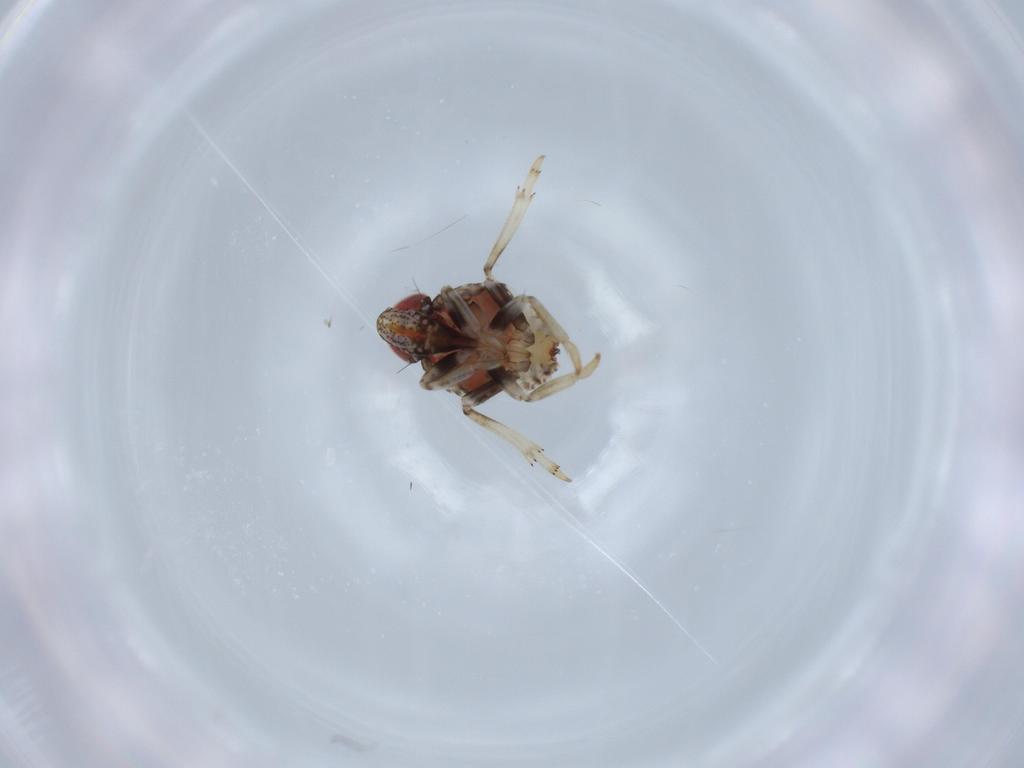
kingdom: Animalia
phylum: Arthropoda
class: Insecta
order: Hemiptera
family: Issidae
